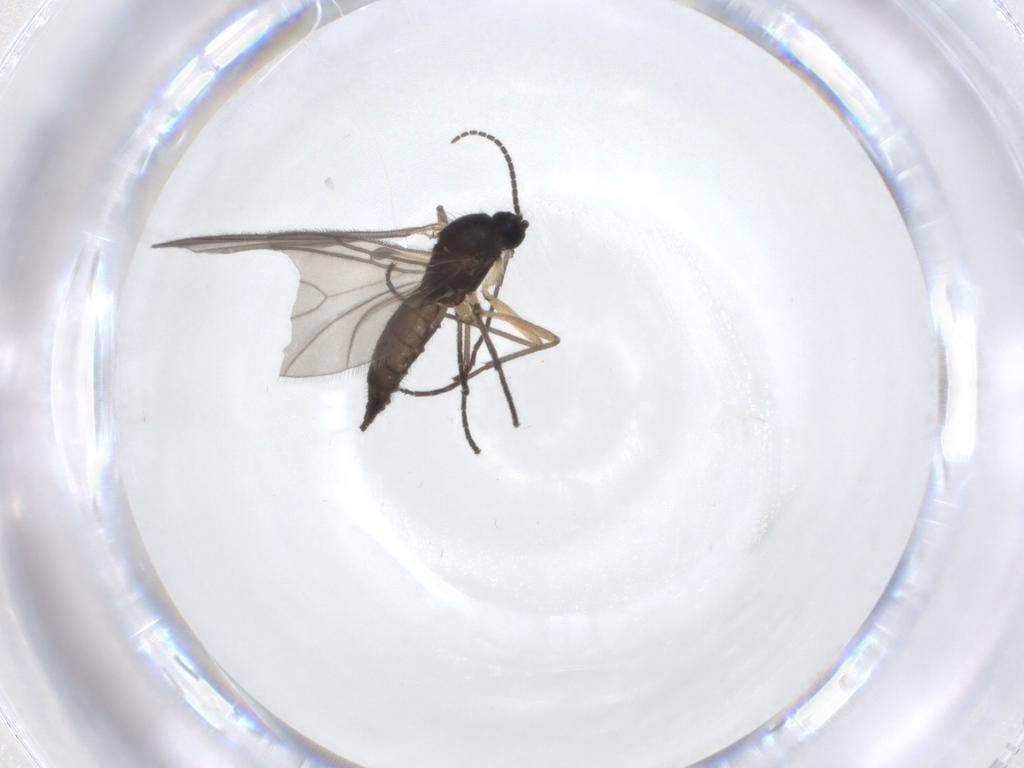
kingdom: Animalia
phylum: Arthropoda
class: Insecta
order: Diptera
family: Sciaridae
